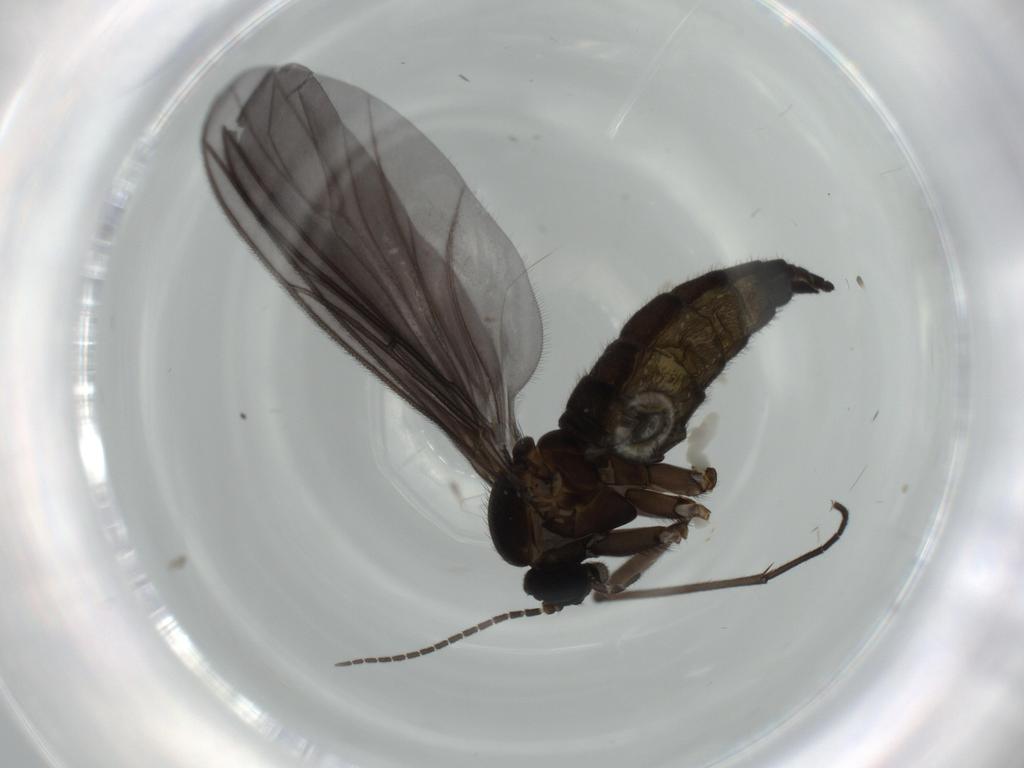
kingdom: Animalia
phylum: Arthropoda
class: Insecta
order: Diptera
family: Sciaridae
